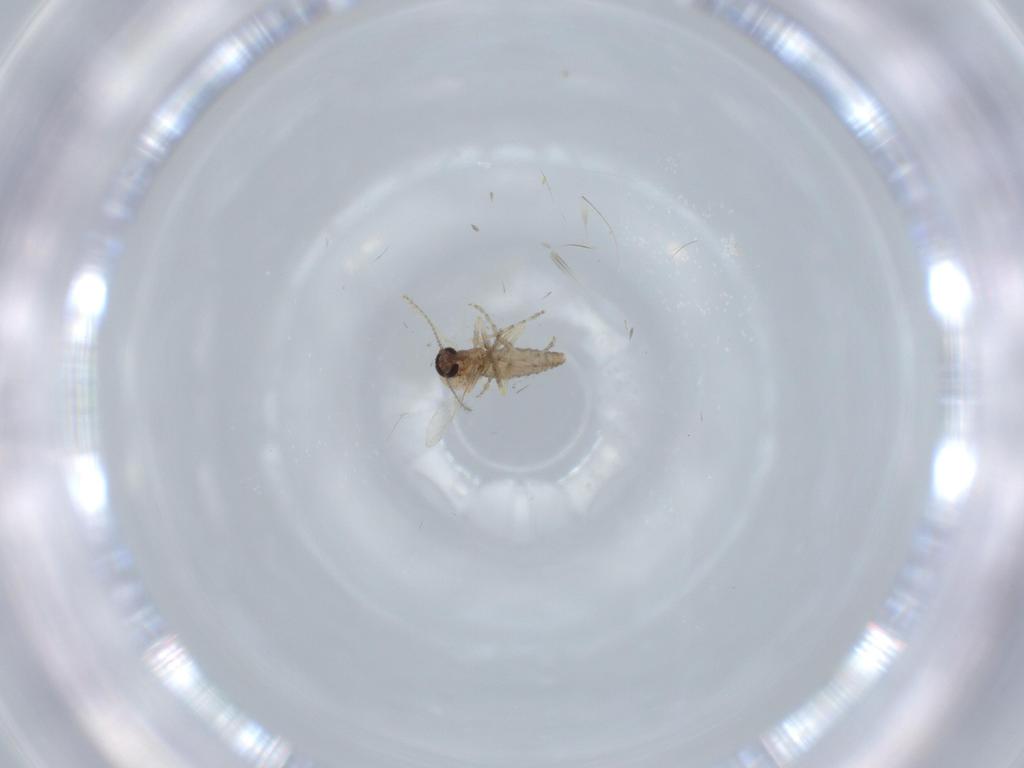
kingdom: Animalia
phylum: Arthropoda
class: Insecta
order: Diptera
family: Ceratopogonidae
